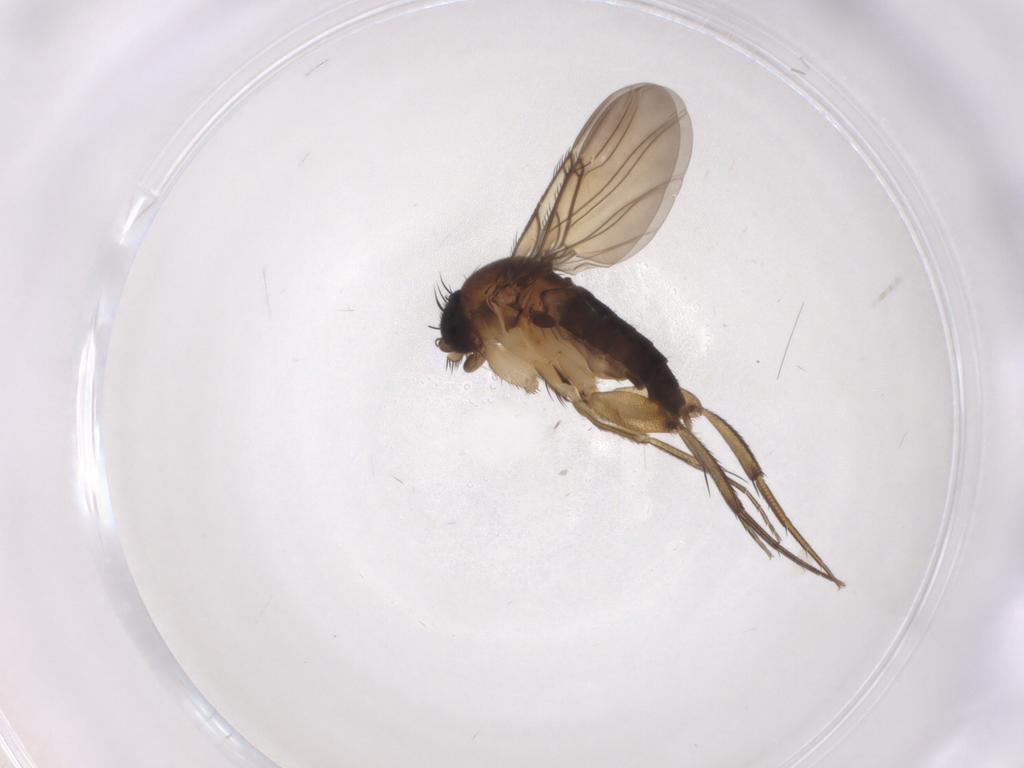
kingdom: Animalia
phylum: Arthropoda
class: Insecta
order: Diptera
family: Phoridae
